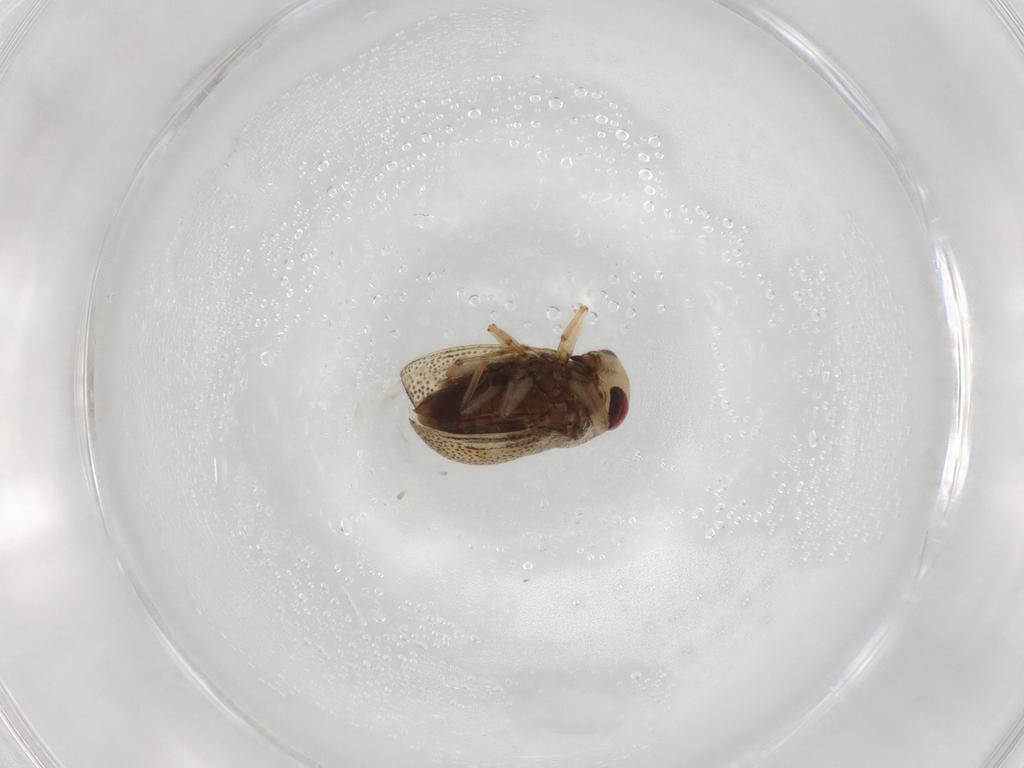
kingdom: Animalia
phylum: Arthropoda
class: Insecta
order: Hemiptera
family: Pleidae
